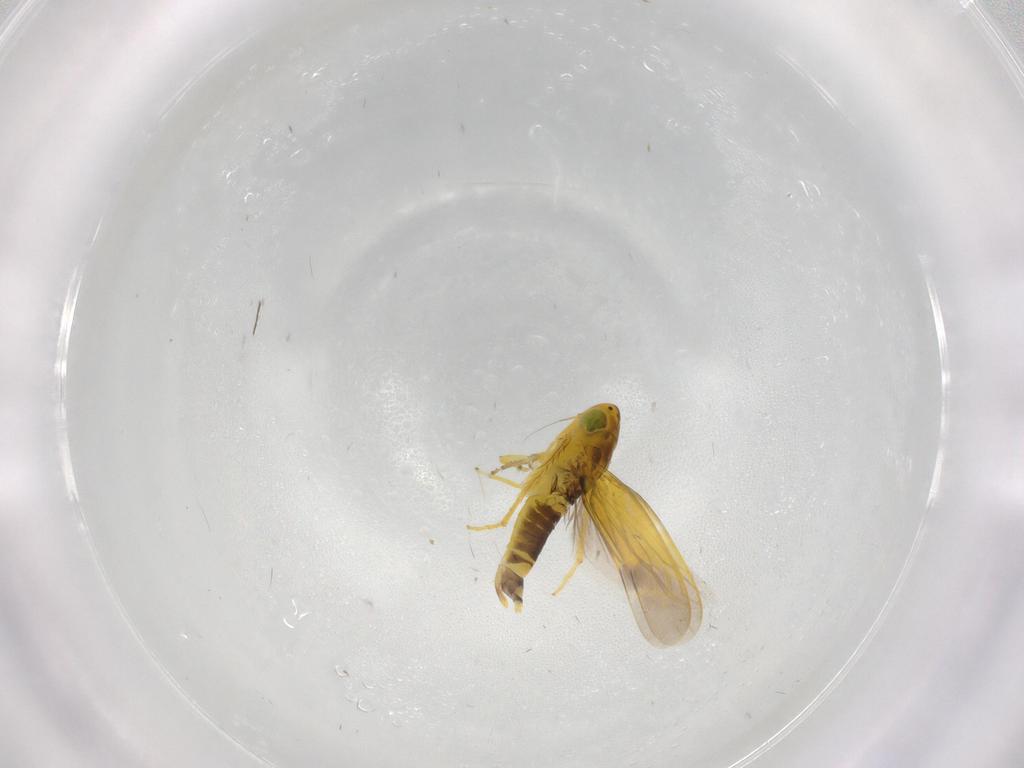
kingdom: Animalia
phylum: Arthropoda
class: Insecta
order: Hemiptera
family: Cicadellidae
